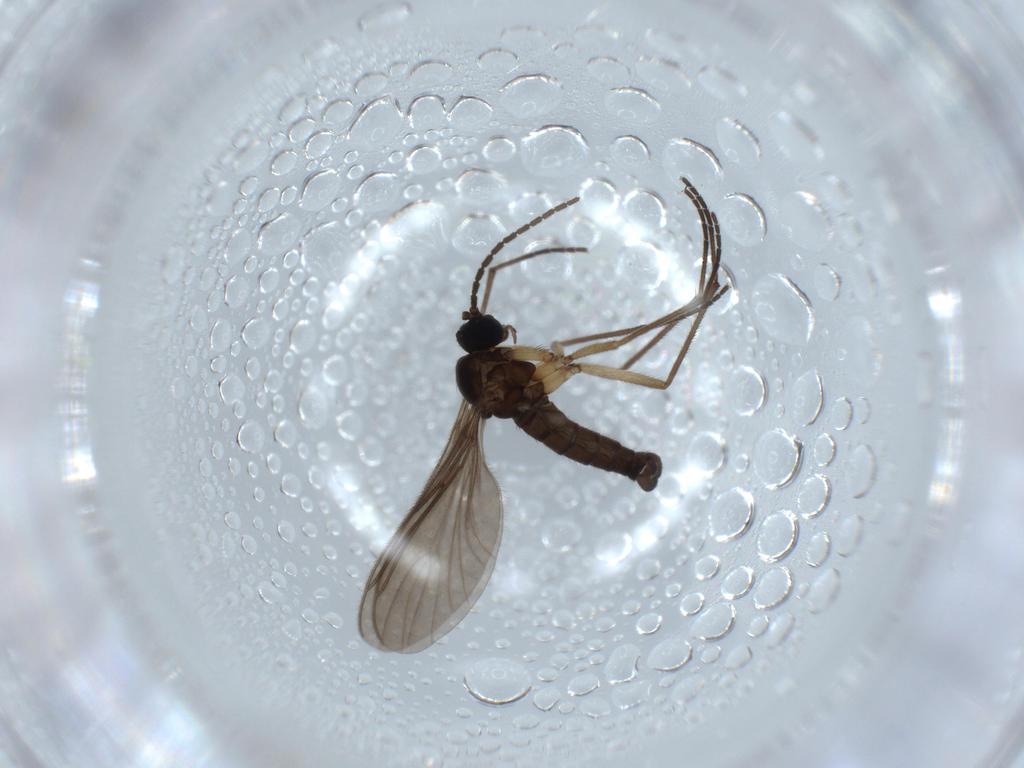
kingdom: Animalia
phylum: Arthropoda
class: Insecta
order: Diptera
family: Sciaridae
